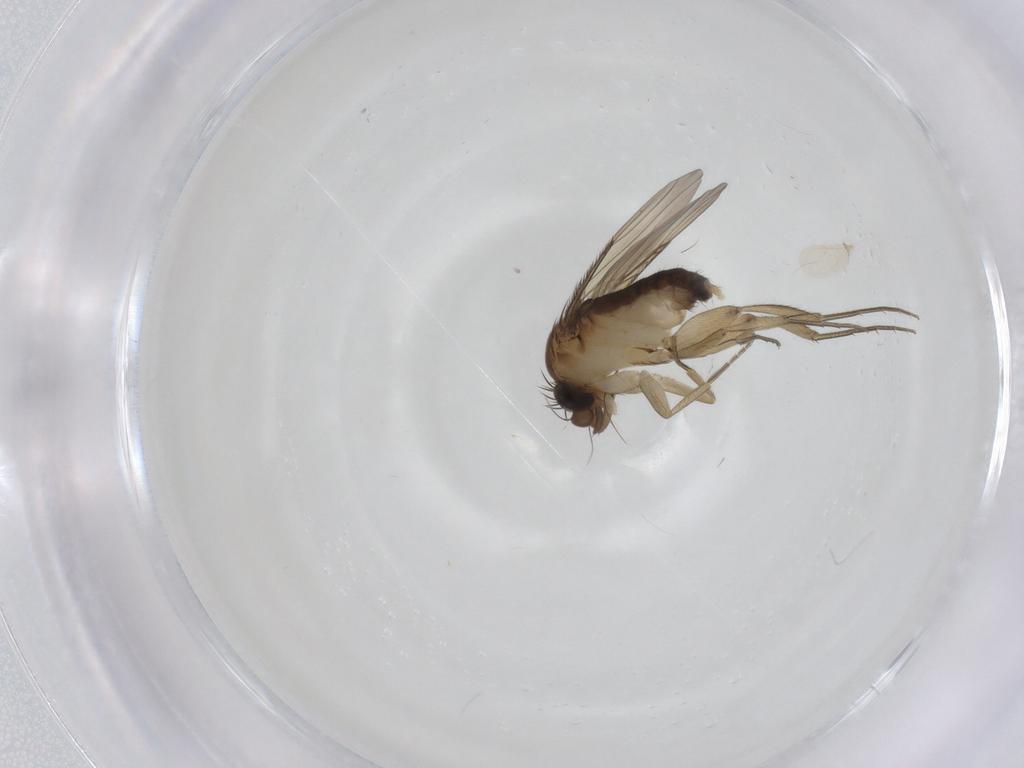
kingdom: Animalia
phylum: Arthropoda
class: Insecta
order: Diptera
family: Phoridae
